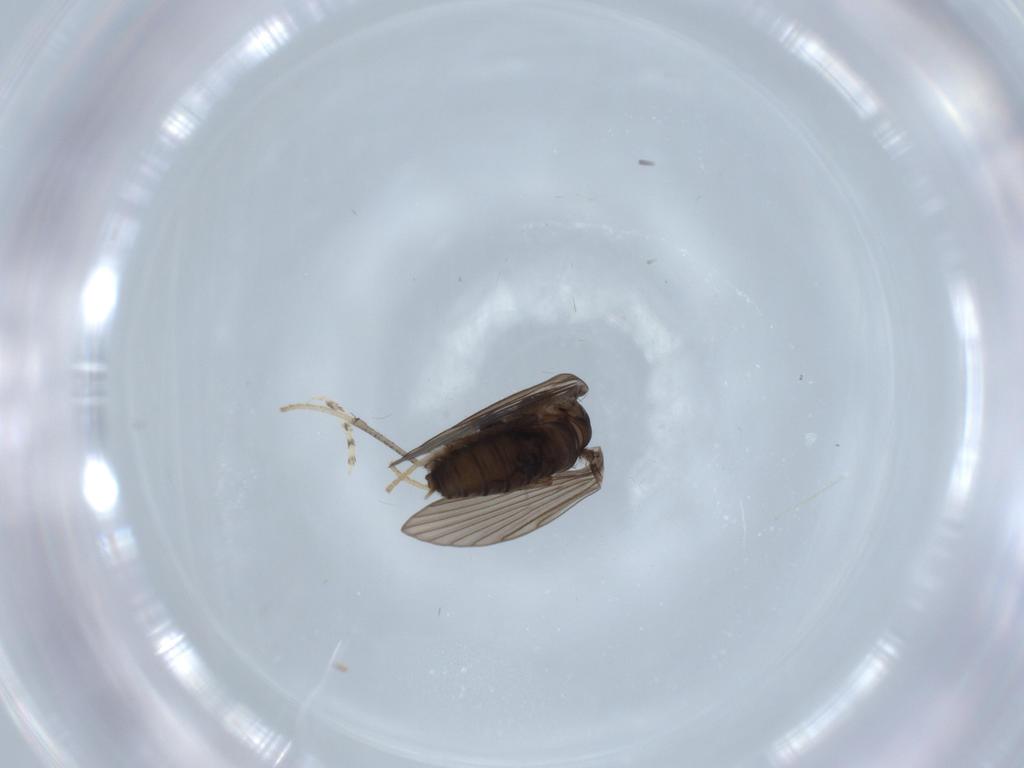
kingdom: Animalia
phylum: Arthropoda
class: Insecta
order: Diptera
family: Psychodidae
